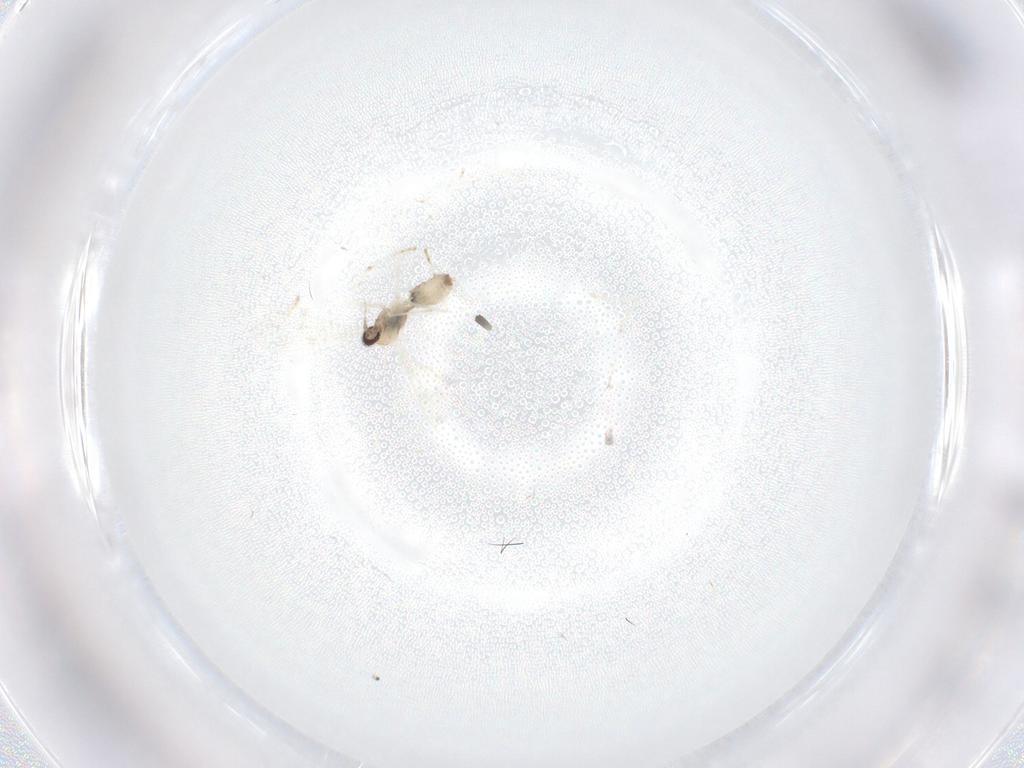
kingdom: Animalia
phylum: Arthropoda
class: Insecta
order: Diptera
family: Cecidomyiidae
